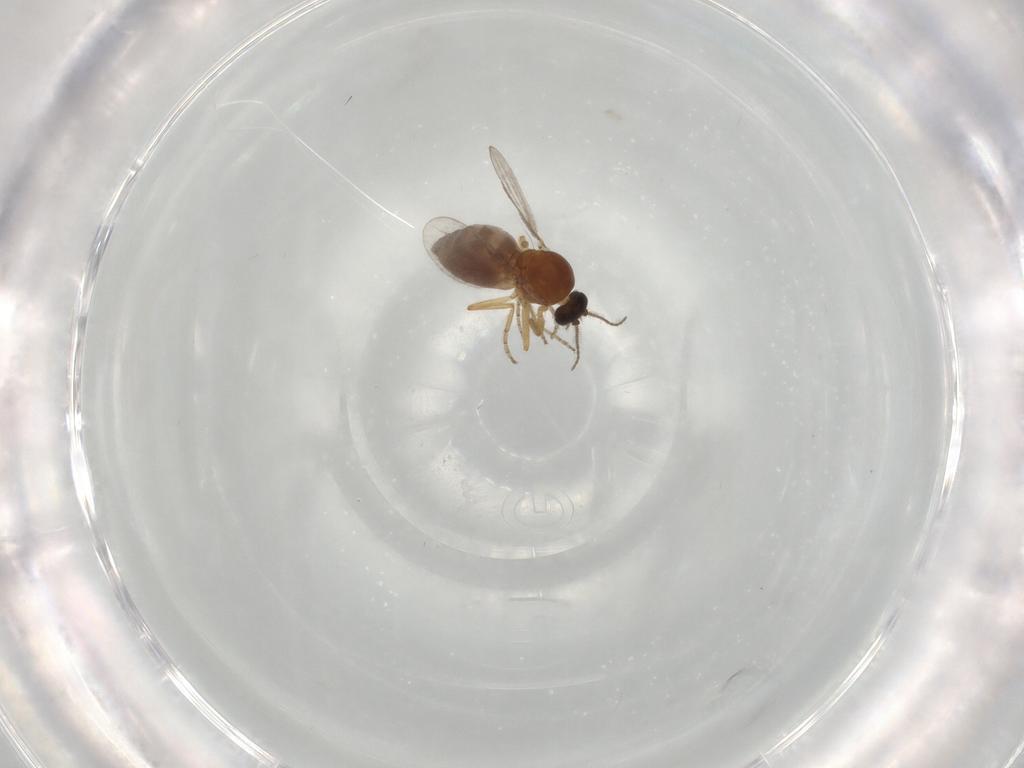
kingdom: Animalia
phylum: Arthropoda
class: Insecta
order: Diptera
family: Ceratopogonidae
